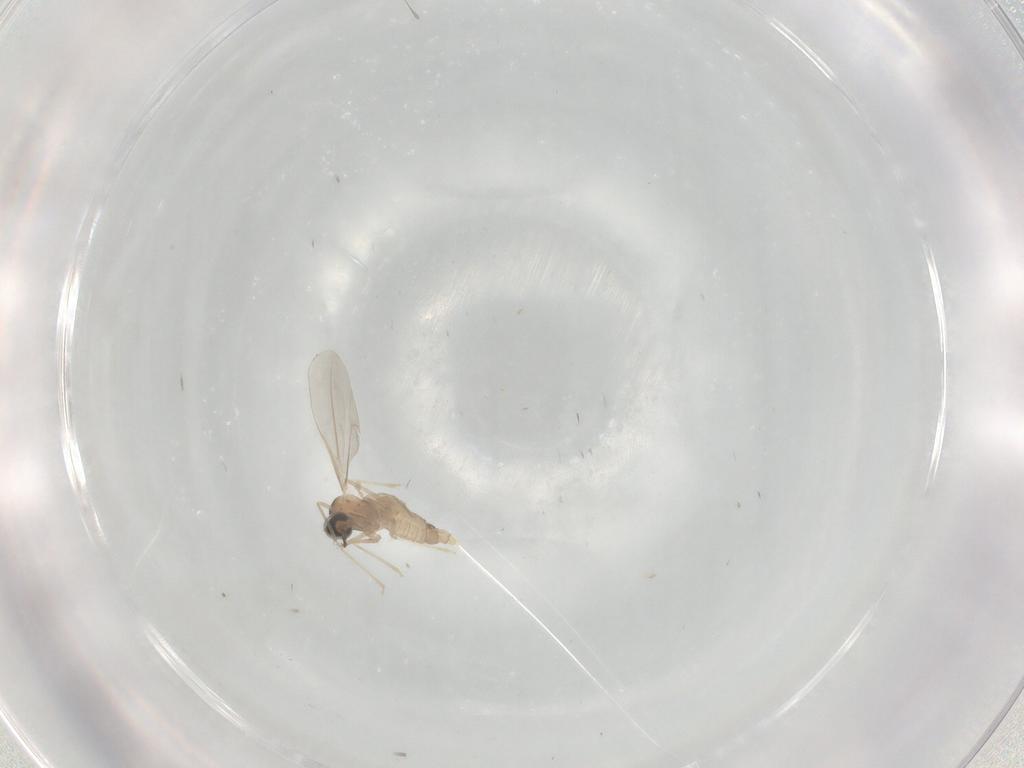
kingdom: Animalia
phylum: Arthropoda
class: Insecta
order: Diptera
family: Cecidomyiidae
